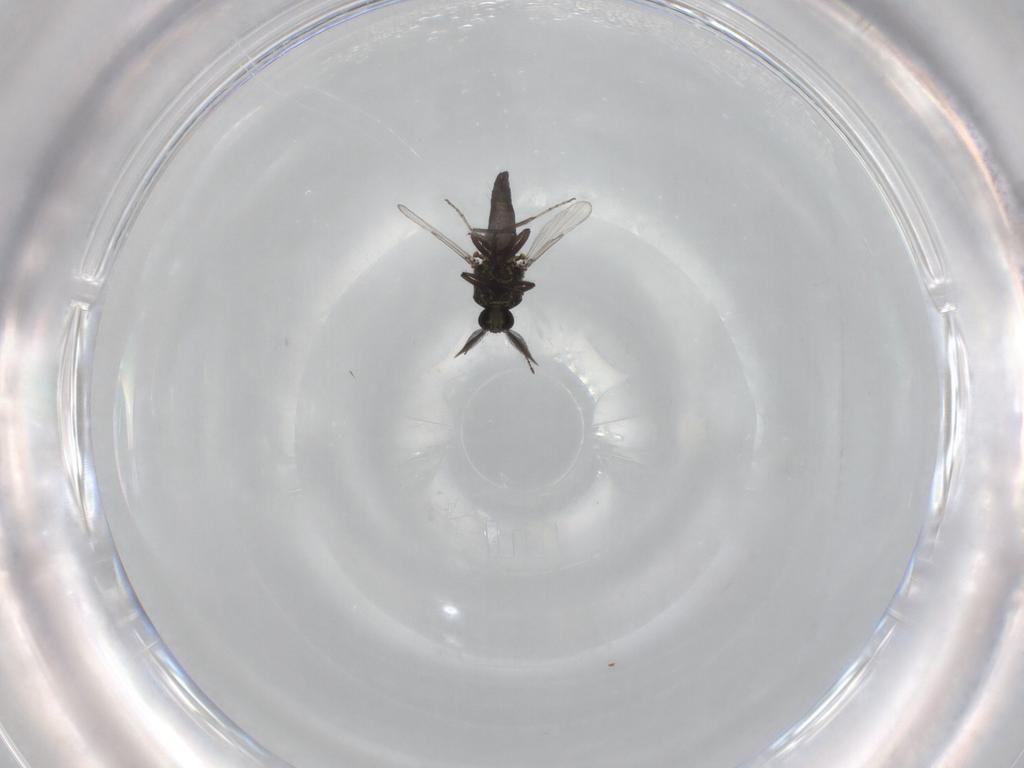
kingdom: Animalia
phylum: Arthropoda
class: Insecta
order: Diptera
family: Ceratopogonidae
